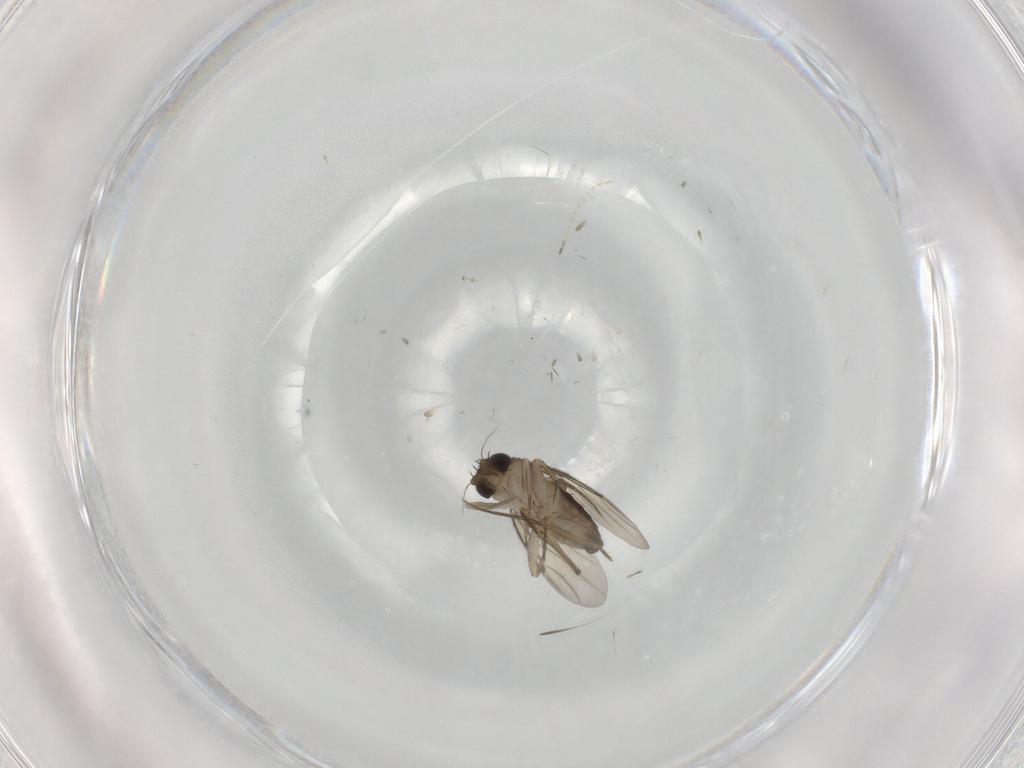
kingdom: Animalia
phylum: Arthropoda
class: Insecta
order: Diptera
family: Phoridae
